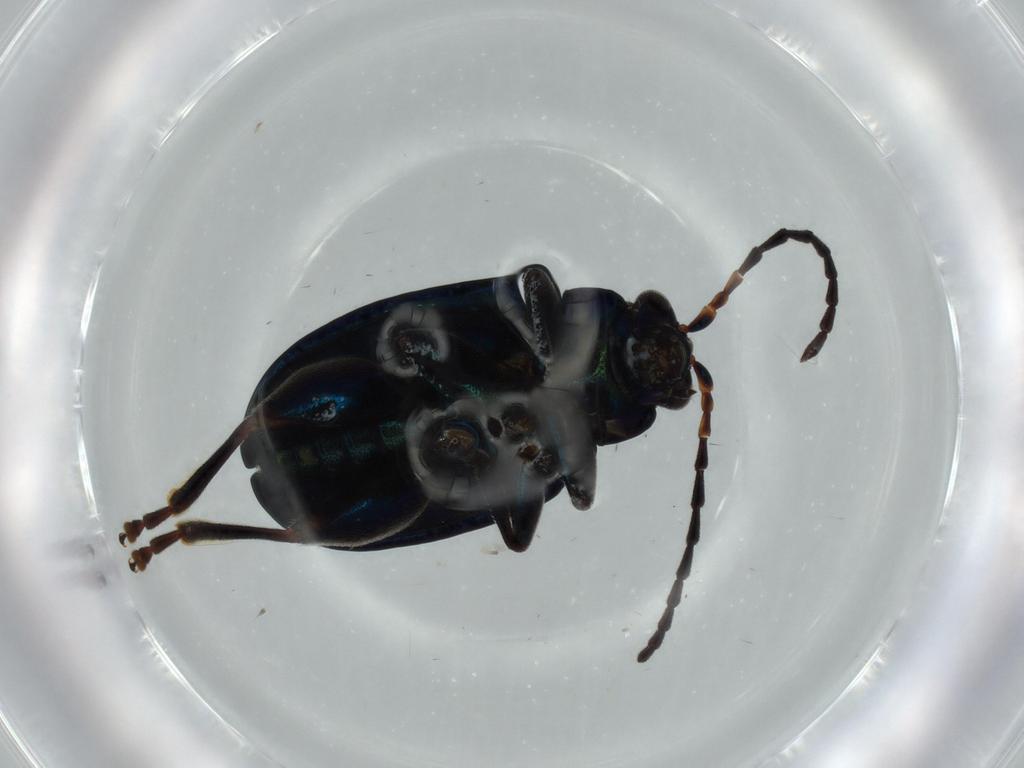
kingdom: Animalia
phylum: Arthropoda
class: Insecta
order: Coleoptera
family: Chrysomelidae
